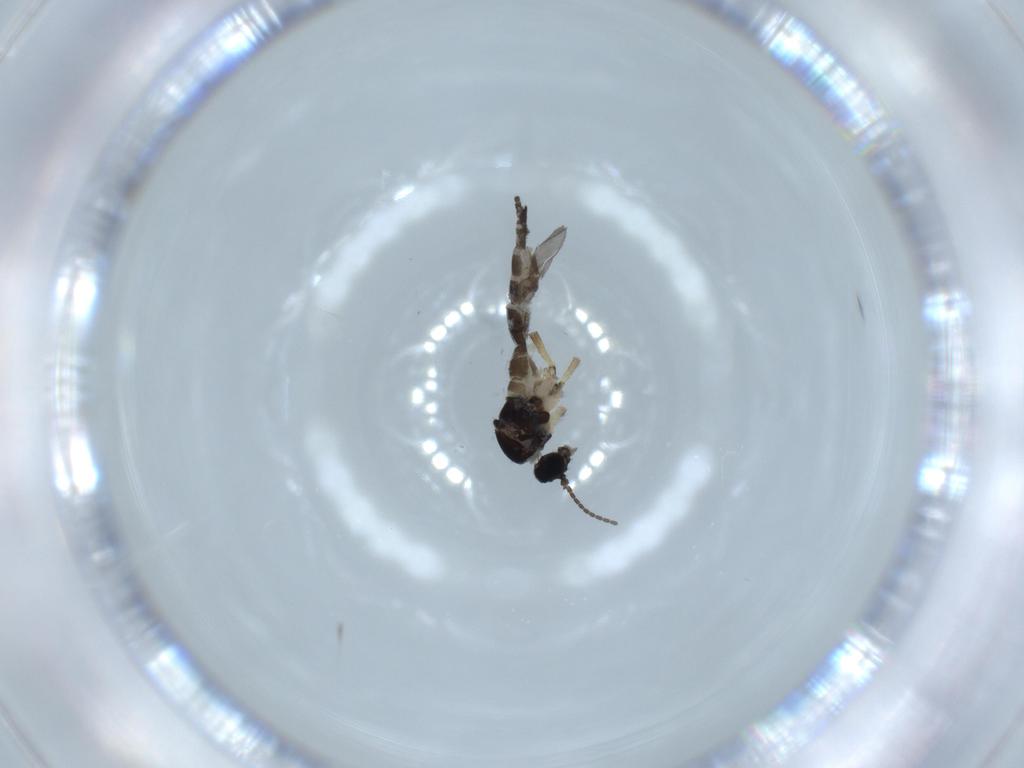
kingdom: Animalia
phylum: Arthropoda
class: Insecta
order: Diptera
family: Sciaridae
